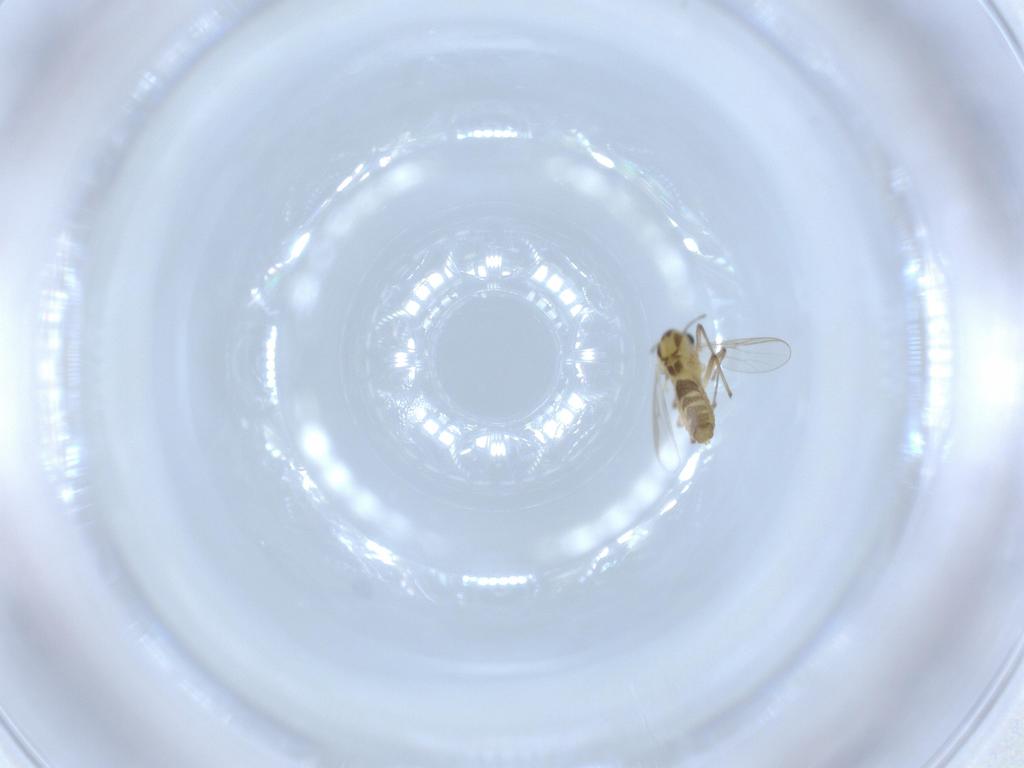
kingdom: Animalia
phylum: Arthropoda
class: Insecta
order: Diptera
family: Chironomidae
